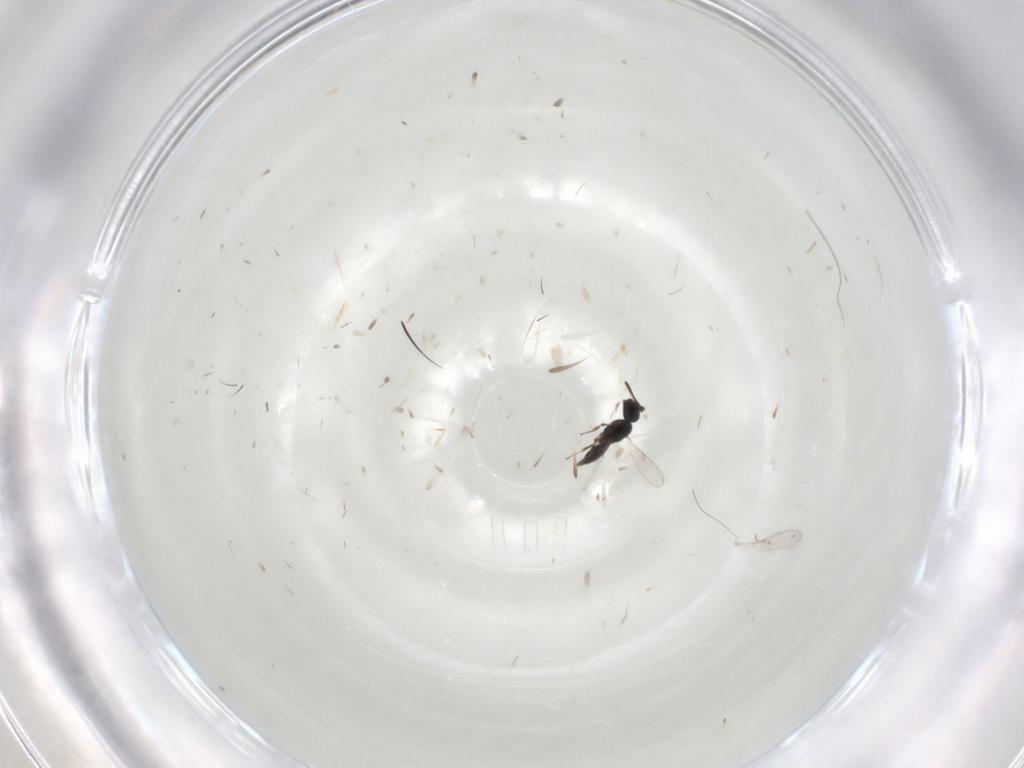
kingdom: Animalia
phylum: Arthropoda
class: Insecta
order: Hymenoptera
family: Scelionidae
